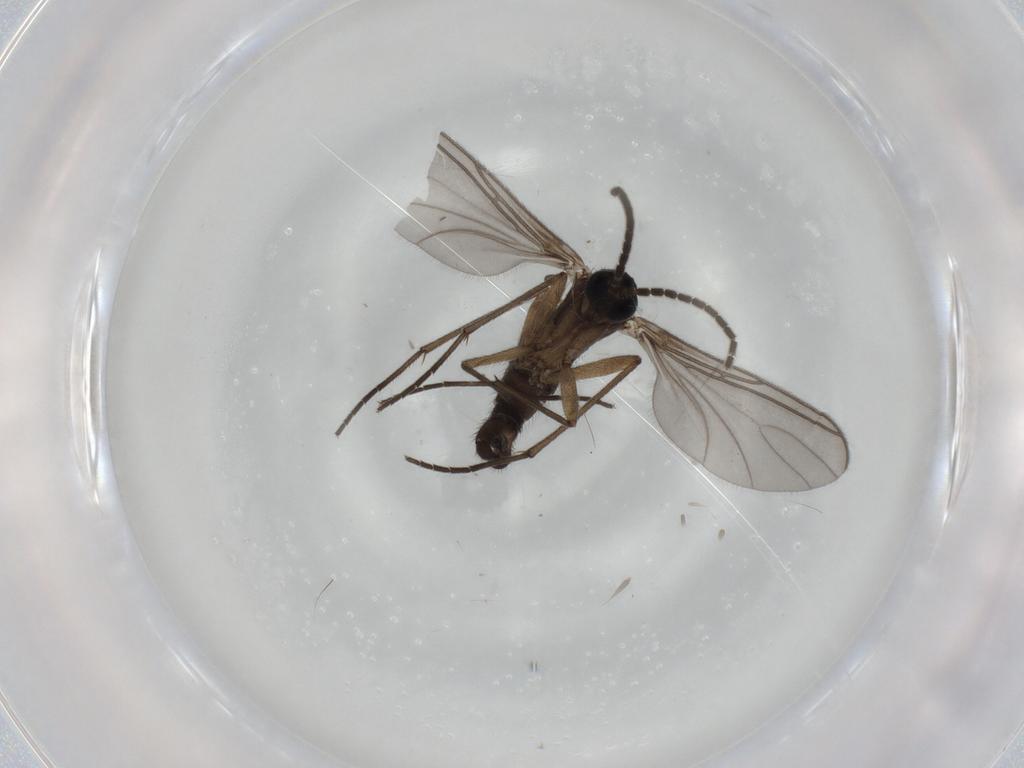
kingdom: Animalia
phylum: Arthropoda
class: Insecta
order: Diptera
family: Sciaridae
